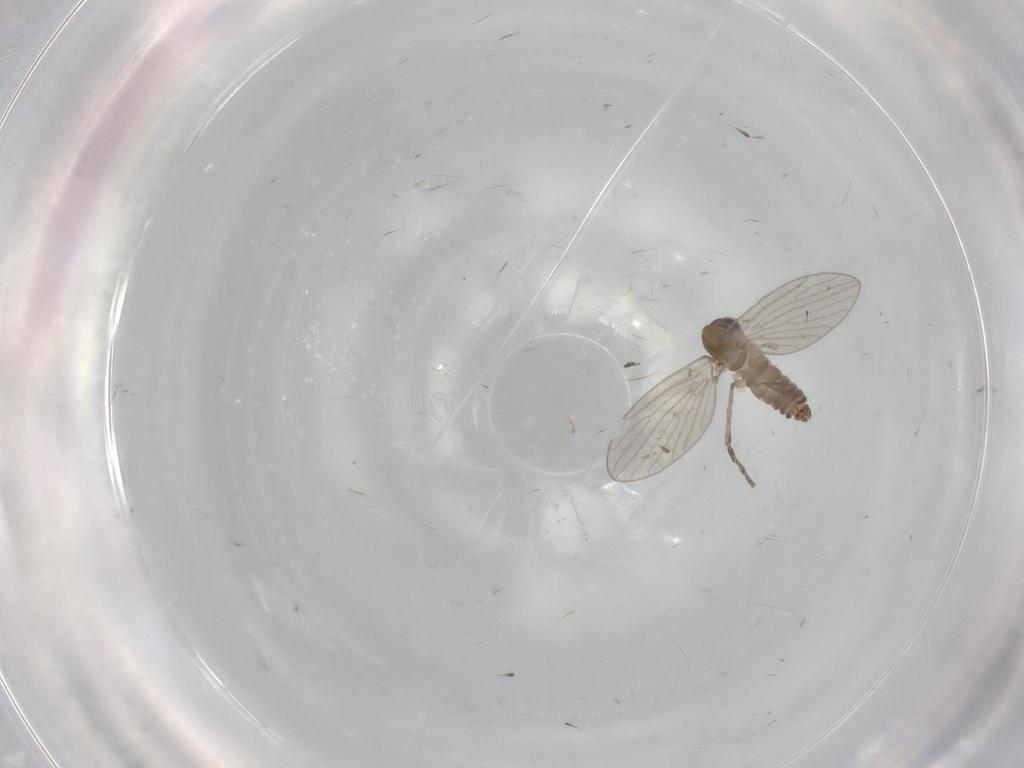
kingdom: Animalia
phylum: Arthropoda
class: Insecta
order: Diptera
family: Psychodidae
